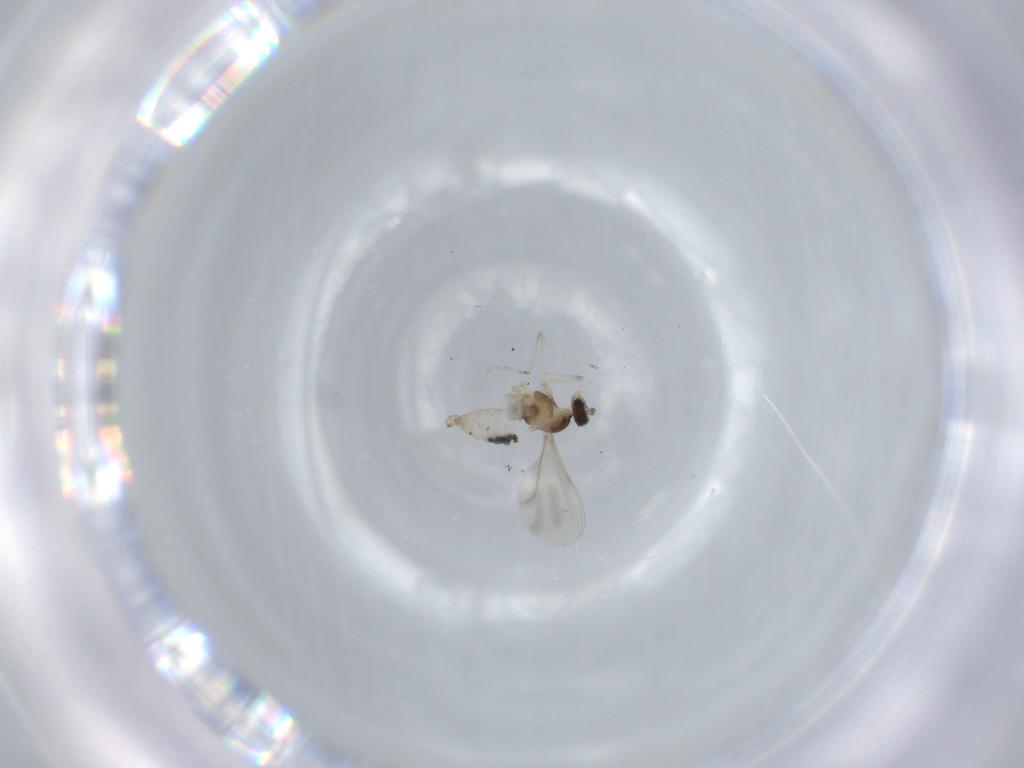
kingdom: Animalia
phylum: Arthropoda
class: Insecta
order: Diptera
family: Cecidomyiidae
